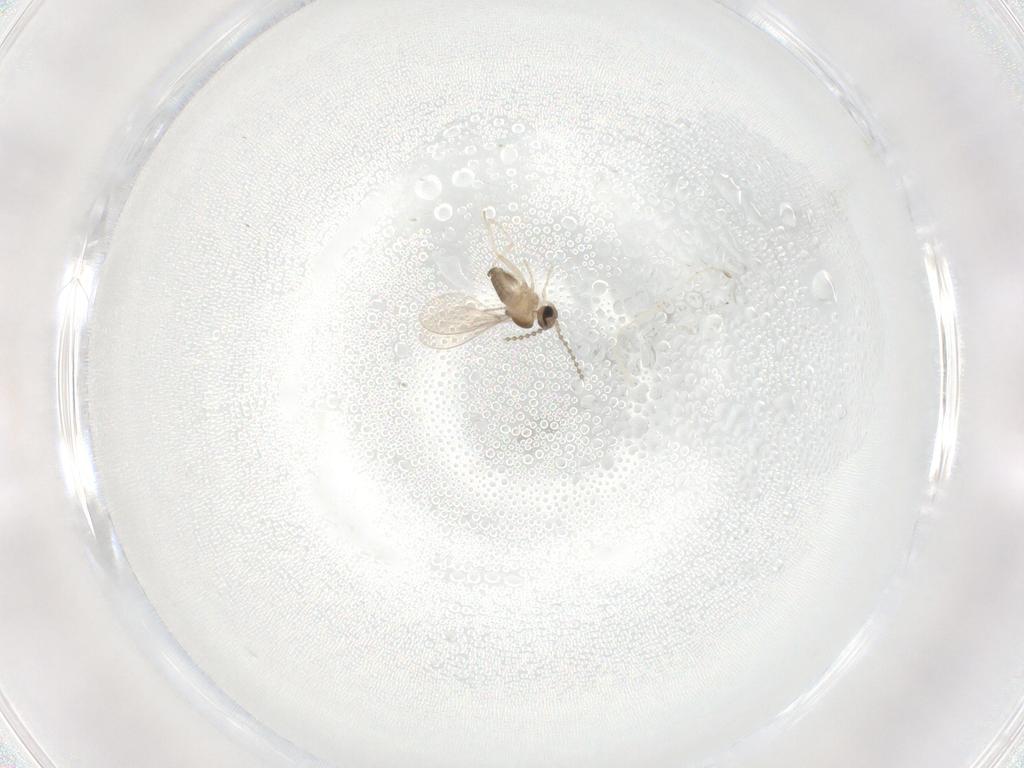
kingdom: Animalia
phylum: Arthropoda
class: Insecta
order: Diptera
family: Cecidomyiidae
